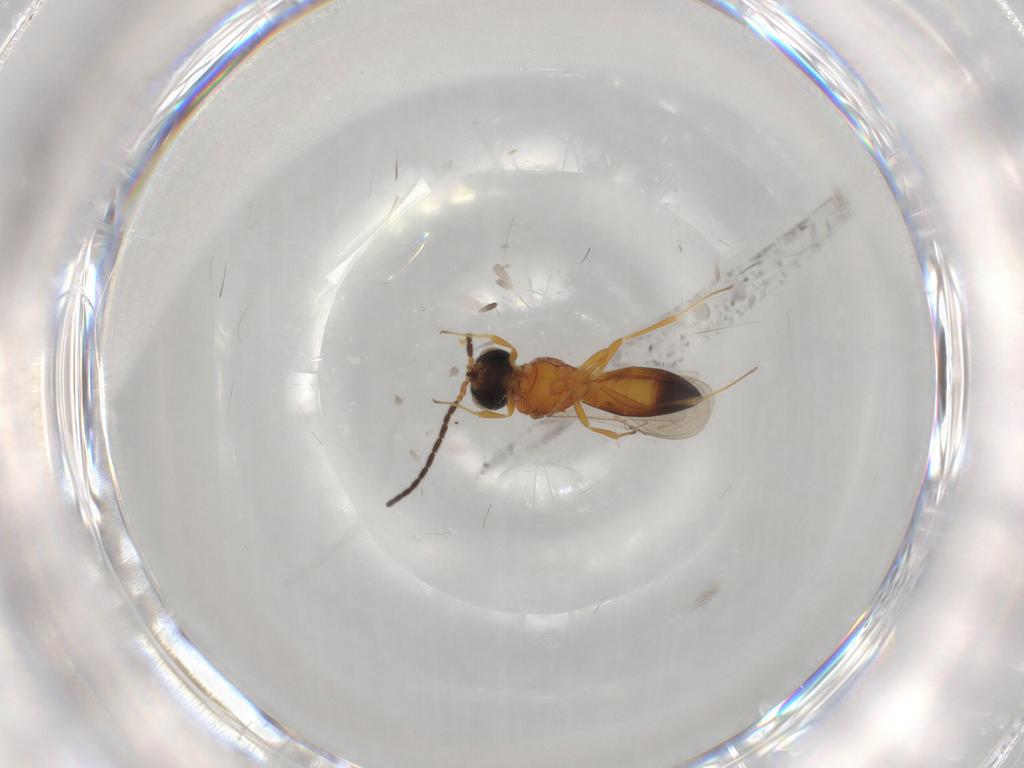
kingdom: Animalia
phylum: Arthropoda
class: Insecta
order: Hymenoptera
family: Scelionidae
